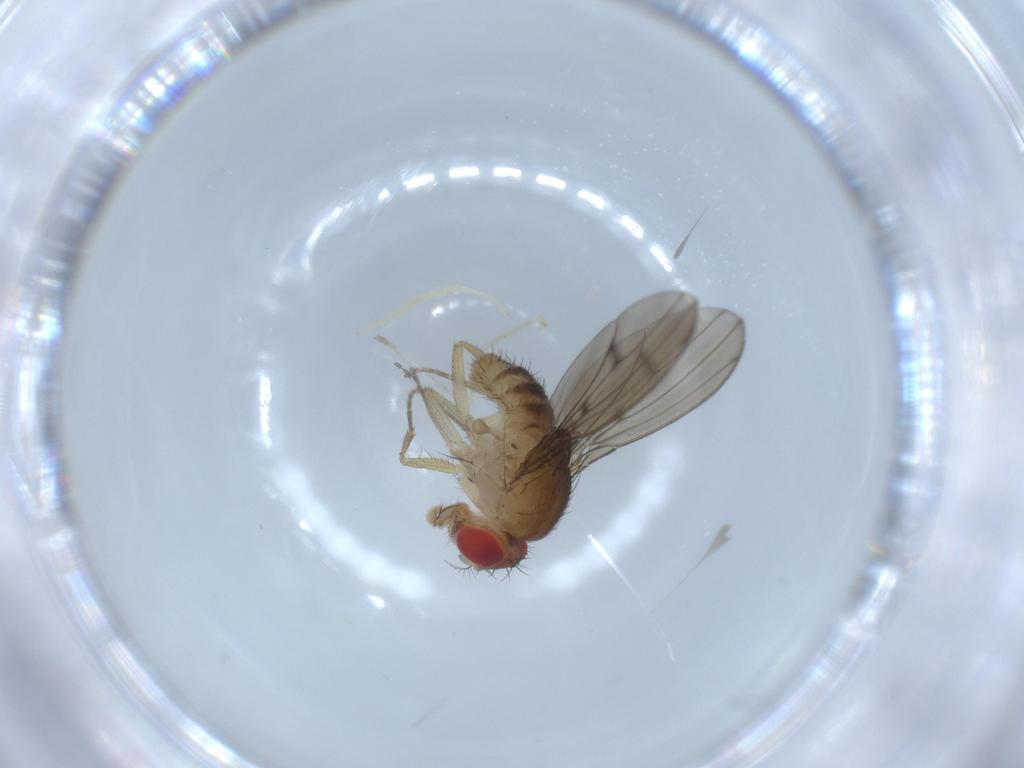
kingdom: Animalia
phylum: Arthropoda
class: Insecta
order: Diptera
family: Drosophilidae
